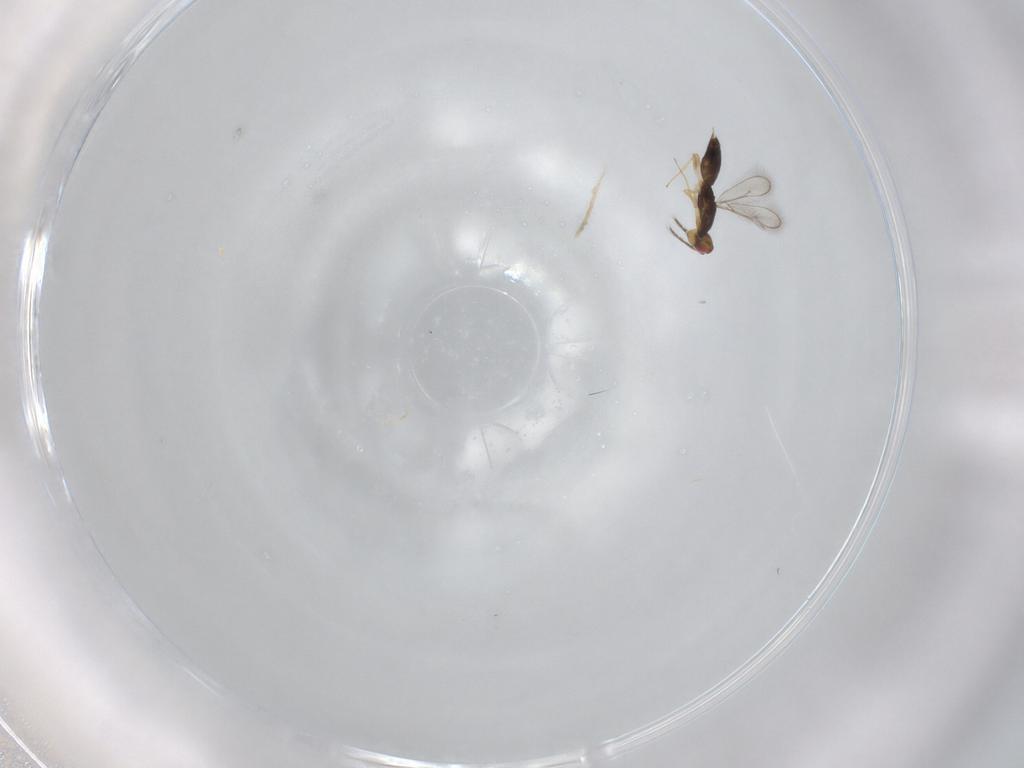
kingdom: Animalia
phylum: Arthropoda
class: Insecta
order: Hymenoptera
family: Eulophidae
